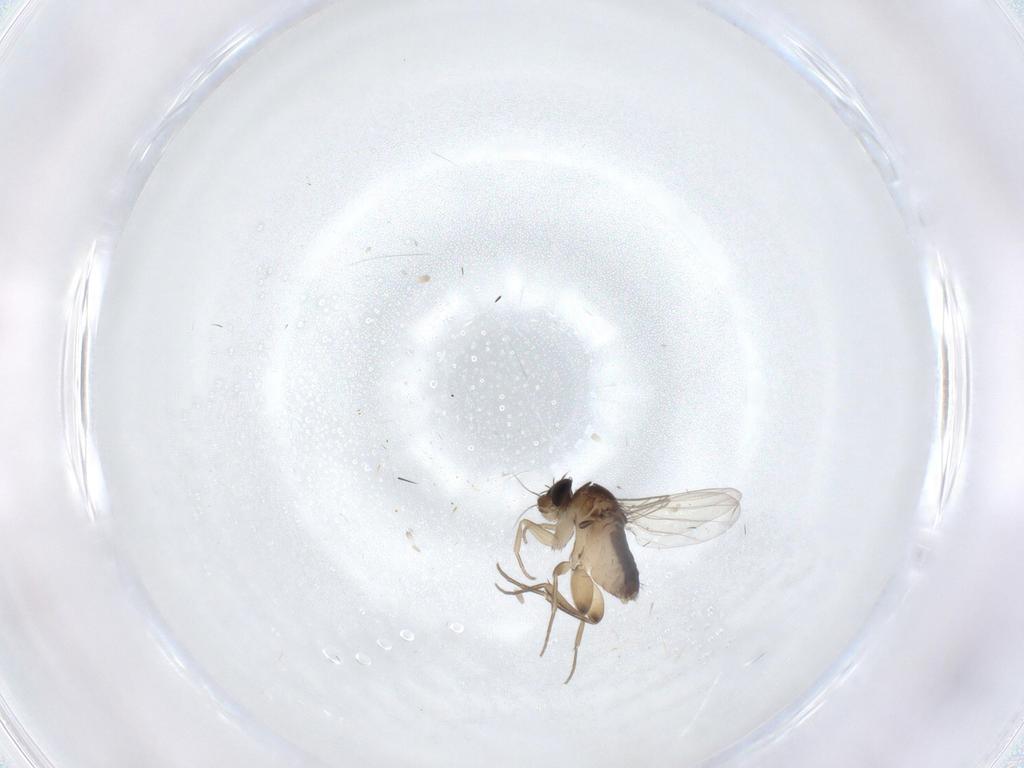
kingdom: Animalia
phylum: Arthropoda
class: Insecta
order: Diptera
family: Phoridae
